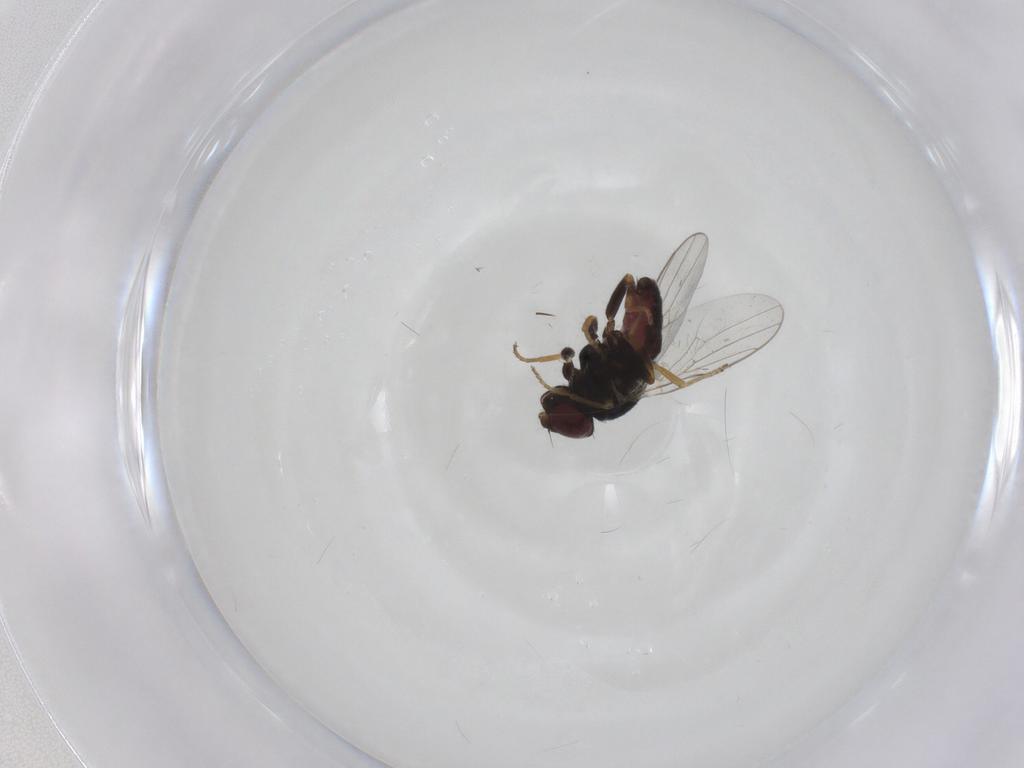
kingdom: Animalia
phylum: Arthropoda
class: Insecta
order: Diptera
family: Chloropidae
